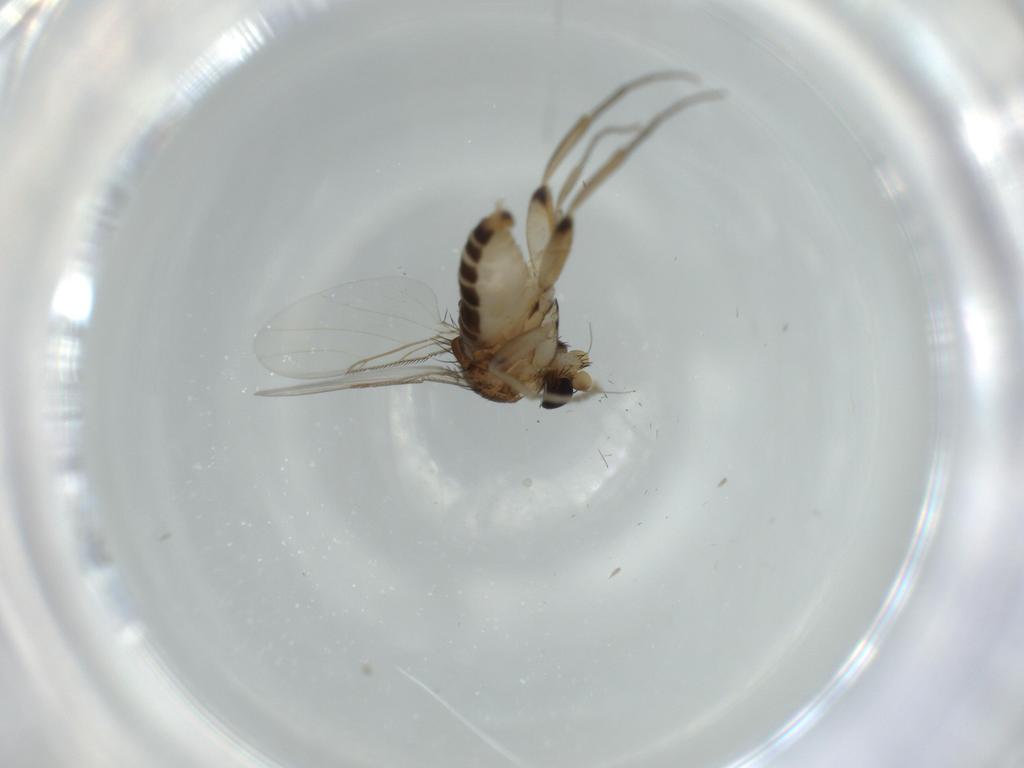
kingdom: Animalia
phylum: Arthropoda
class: Insecta
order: Diptera
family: Phoridae
